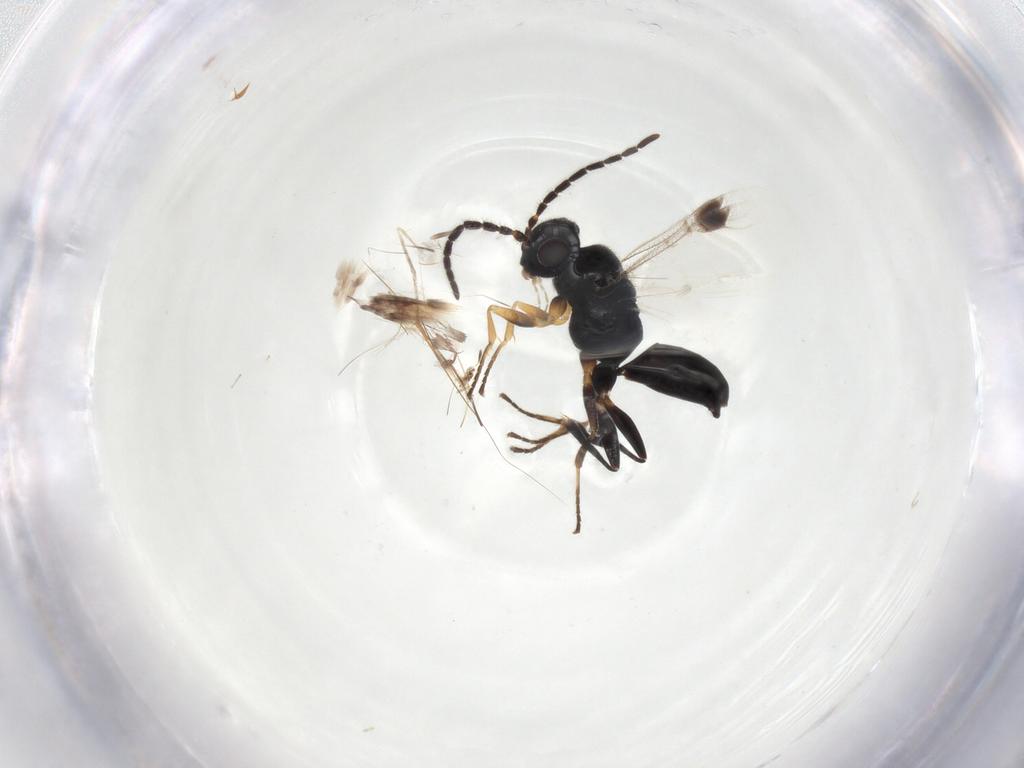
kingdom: Animalia
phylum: Arthropoda
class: Insecta
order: Hymenoptera
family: Dryinidae
